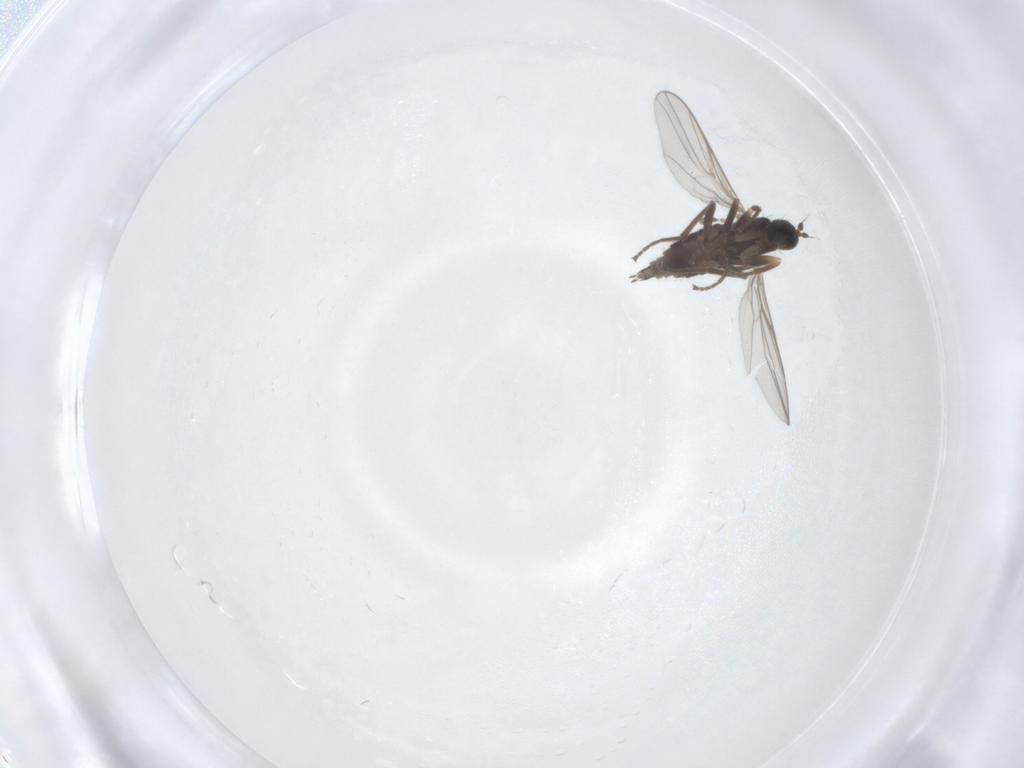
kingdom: Animalia
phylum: Arthropoda
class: Insecta
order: Diptera
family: Hybotidae
